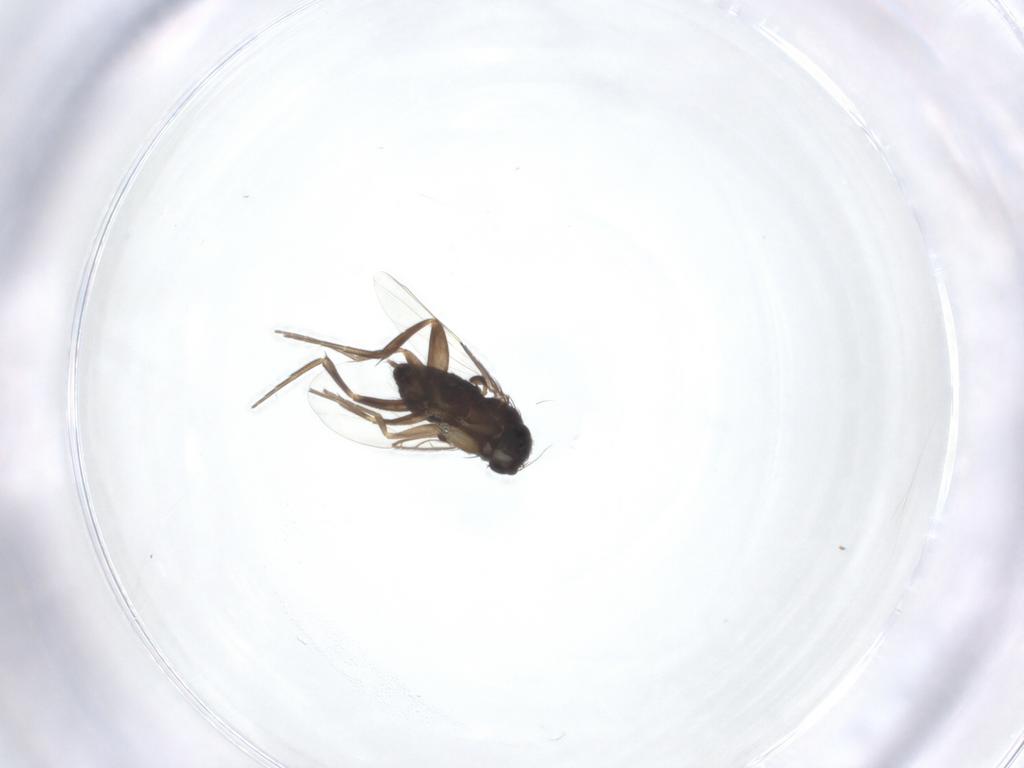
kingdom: Animalia
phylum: Arthropoda
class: Insecta
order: Diptera
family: Phoridae
